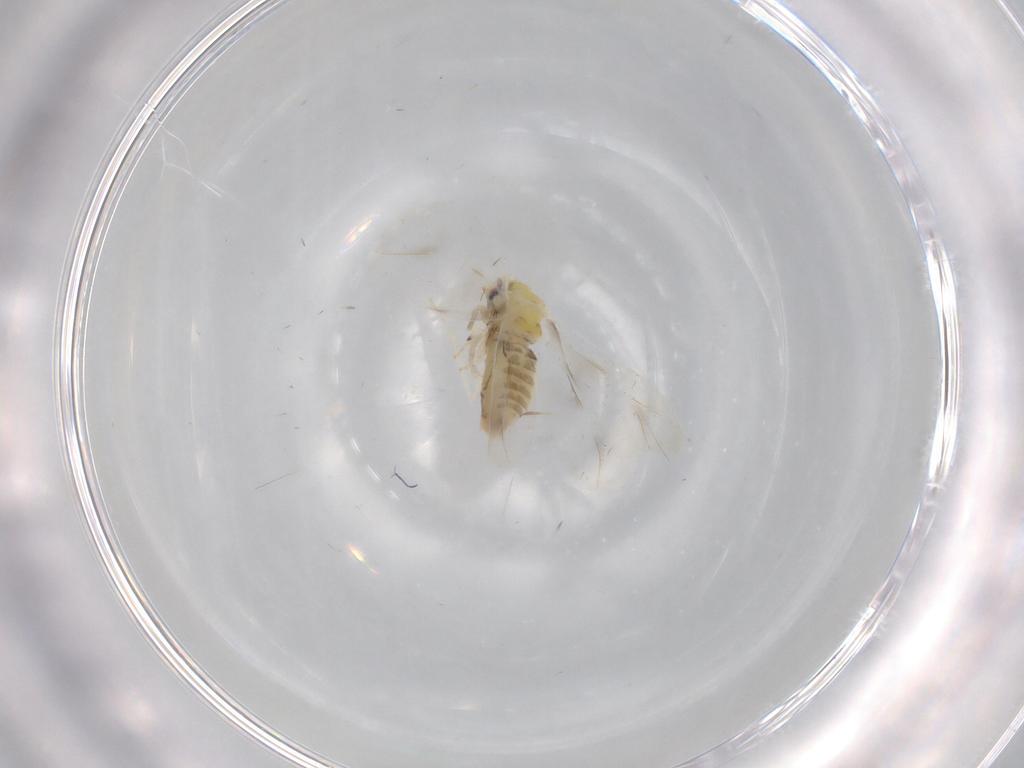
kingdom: Animalia
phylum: Arthropoda
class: Insecta
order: Hemiptera
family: Aleyrodidae
